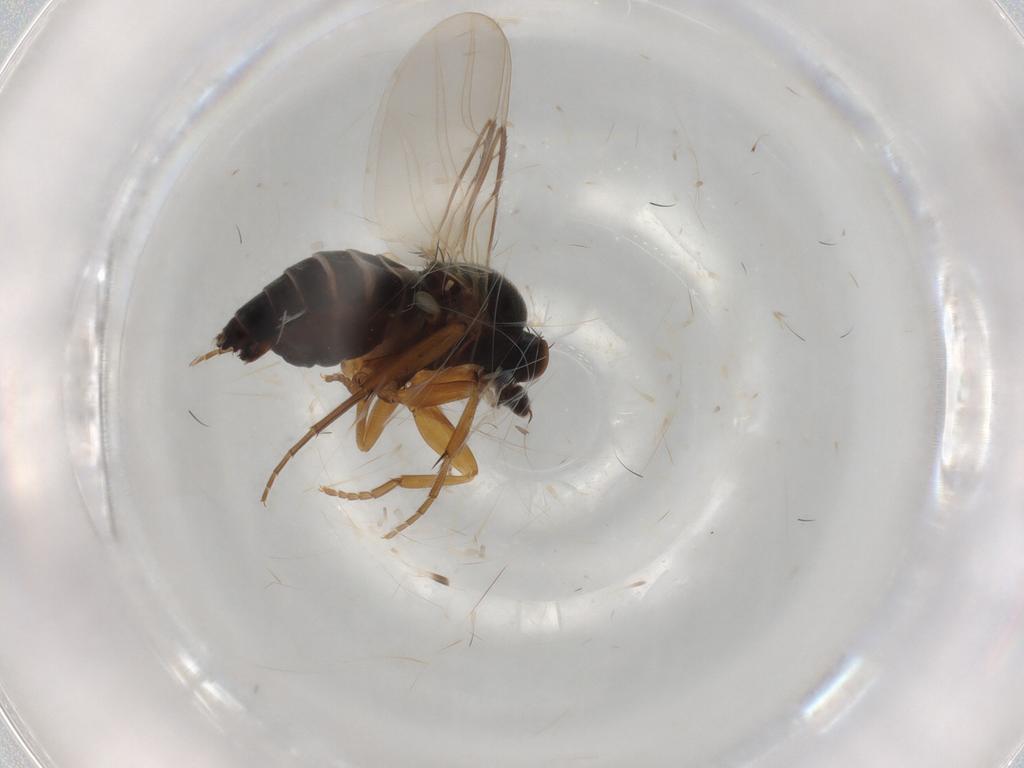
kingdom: Animalia
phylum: Arthropoda
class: Insecta
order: Diptera
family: Phoridae
